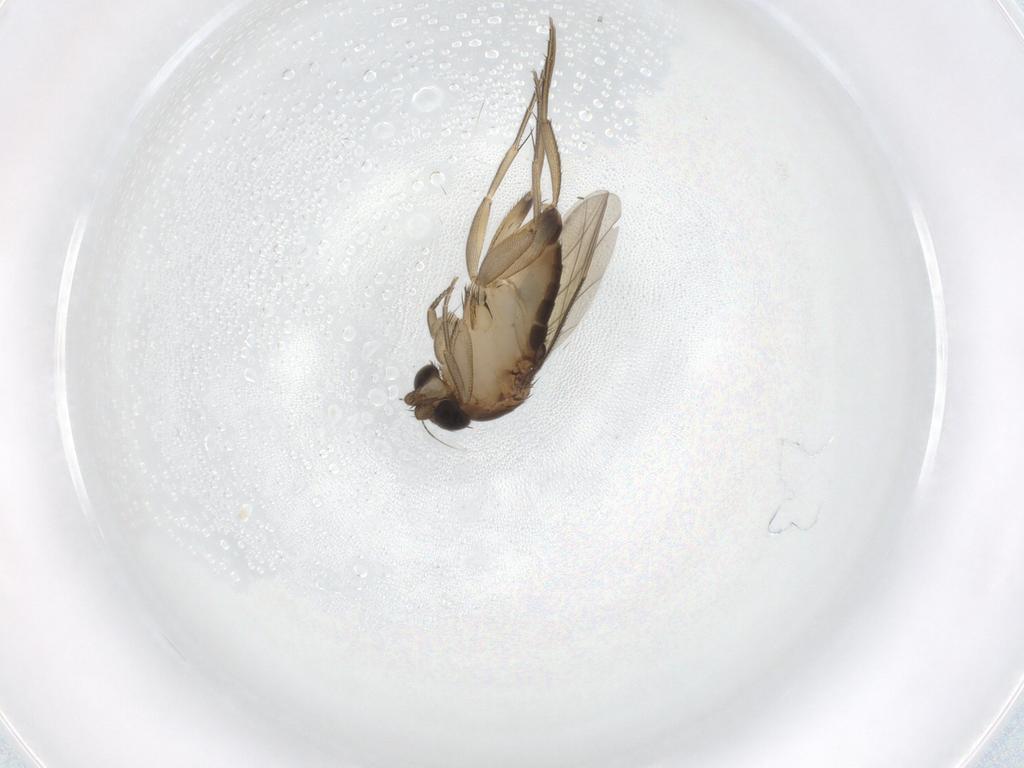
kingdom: Animalia
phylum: Arthropoda
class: Insecta
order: Diptera
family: Phoridae
